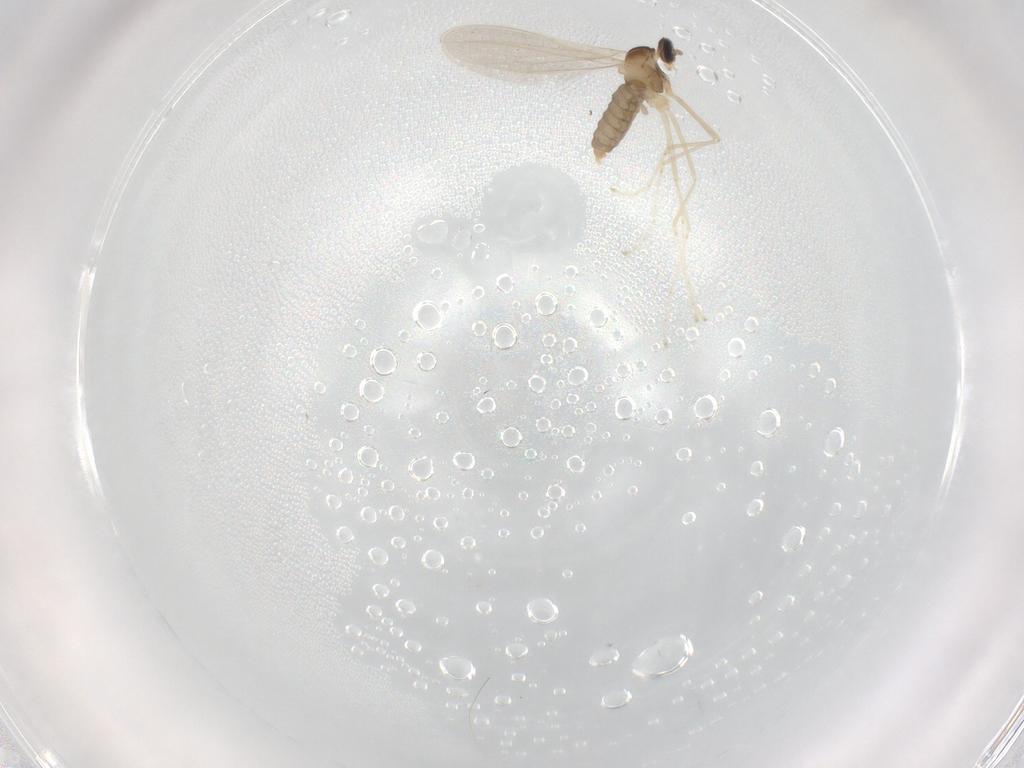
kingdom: Animalia
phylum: Arthropoda
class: Insecta
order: Diptera
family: Cecidomyiidae
